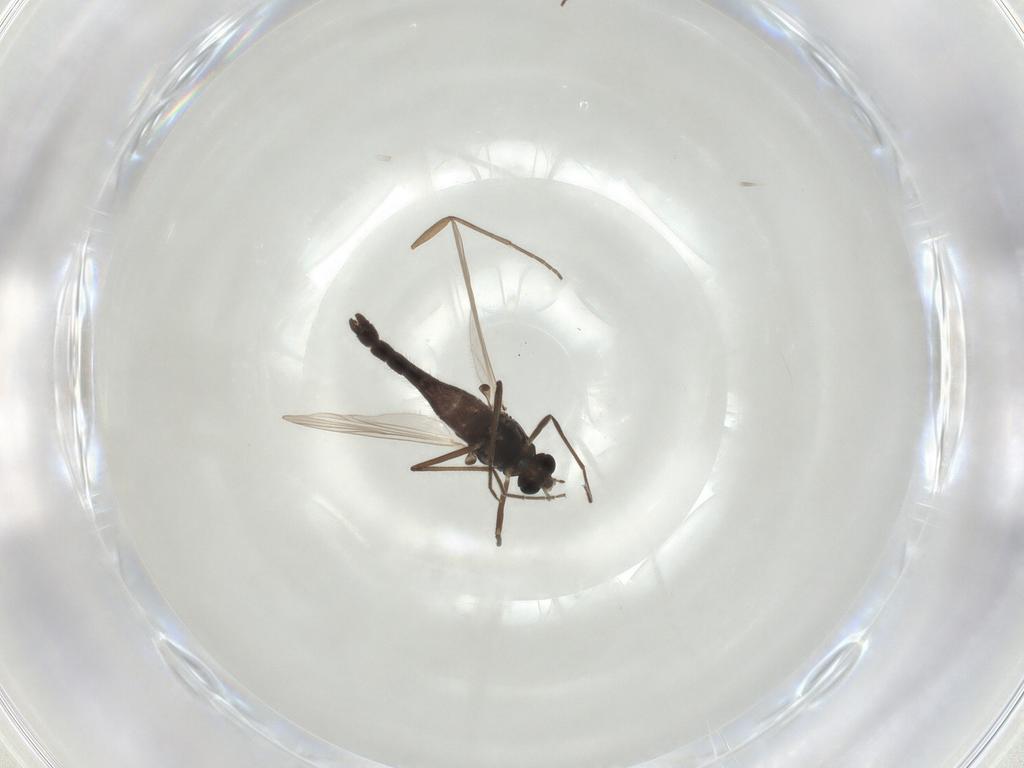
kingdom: Animalia
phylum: Arthropoda
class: Insecta
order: Diptera
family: Chironomidae
